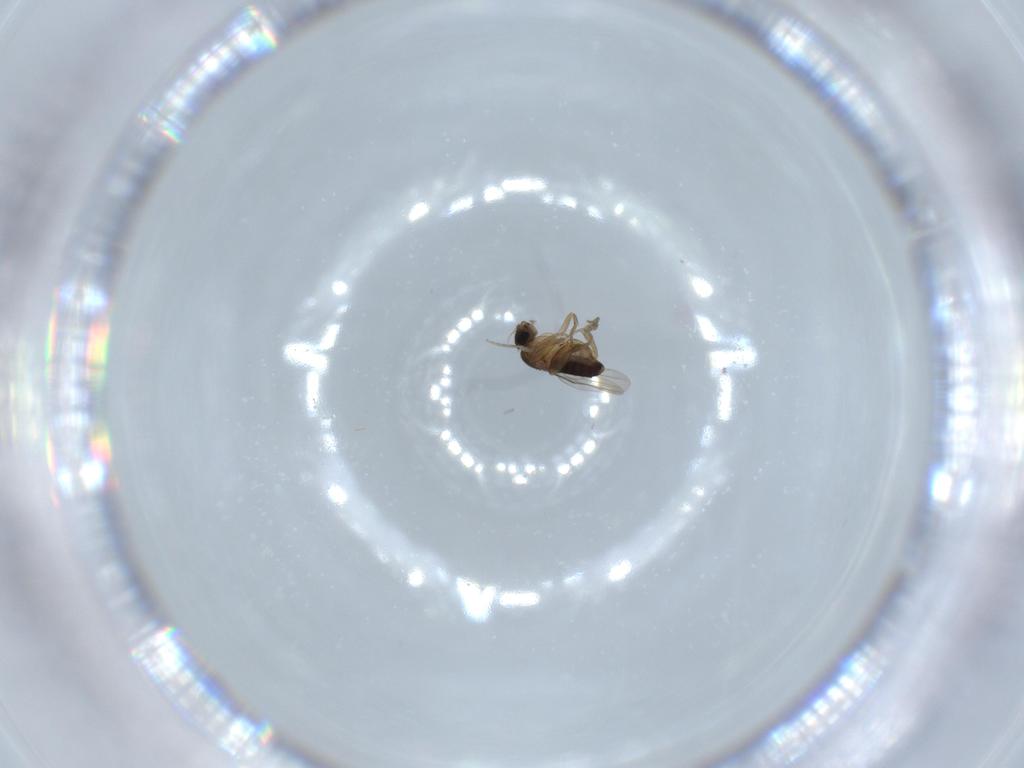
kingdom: Animalia
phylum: Arthropoda
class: Insecta
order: Diptera
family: Phoridae
